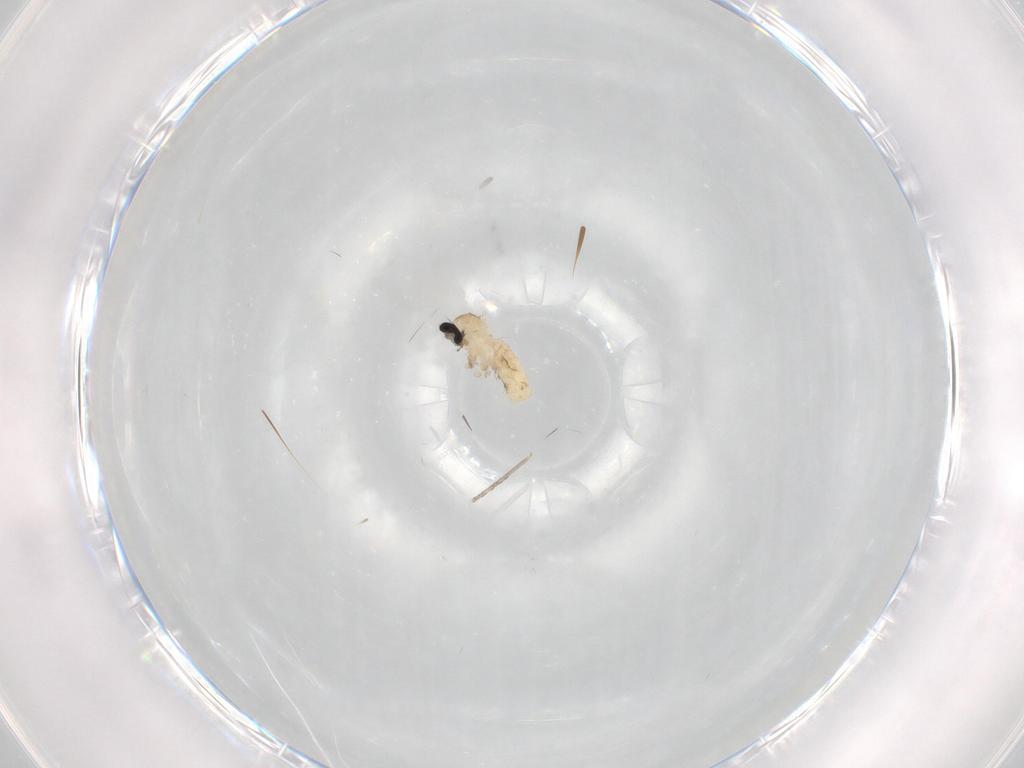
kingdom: Animalia
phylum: Arthropoda
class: Insecta
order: Diptera
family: Cecidomyiidae
